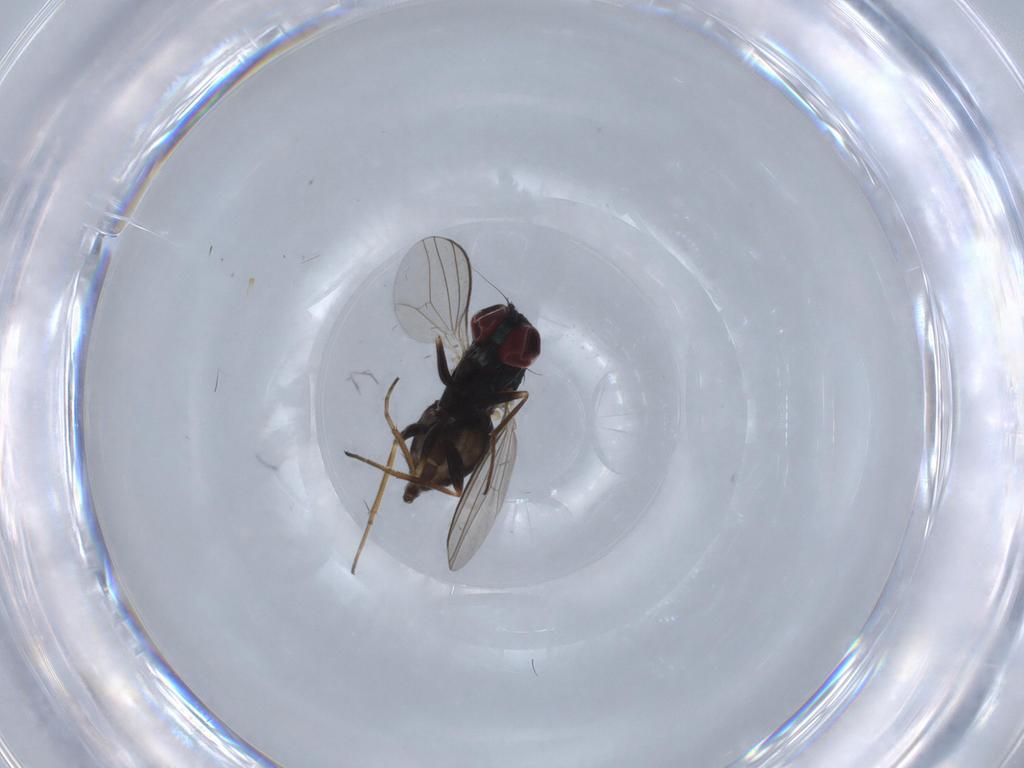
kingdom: Animalia
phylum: Arthropoda
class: Insecta
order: Diptera
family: Dolichopodidae
